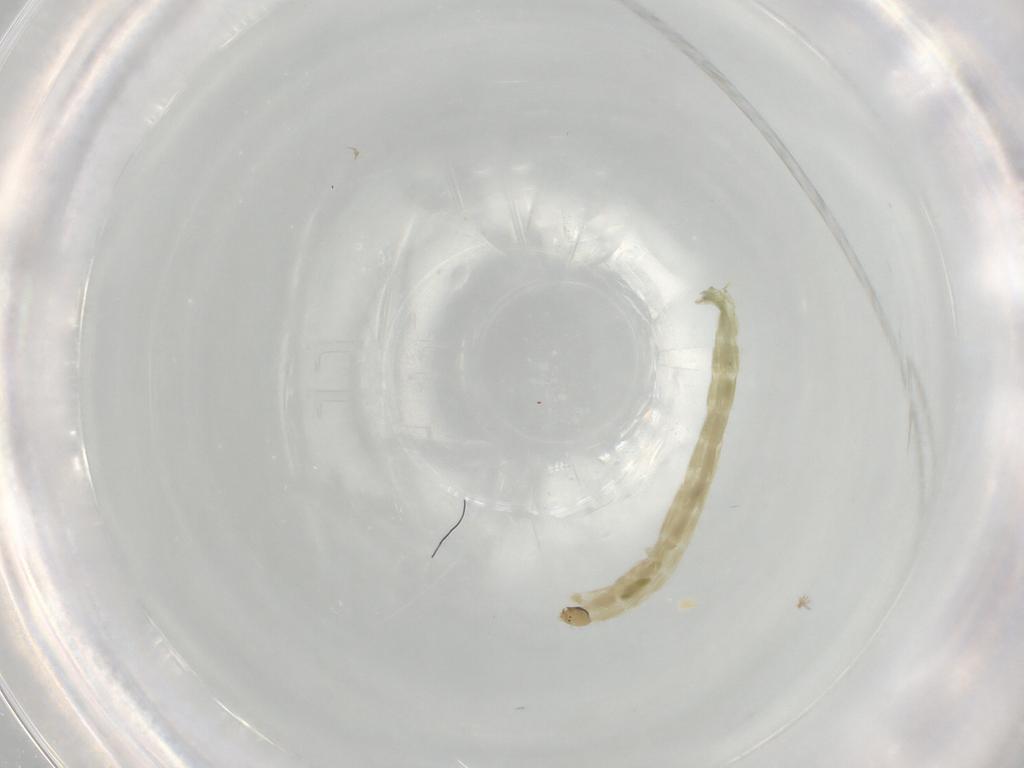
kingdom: Animalia
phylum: Arthropoda
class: Insecta
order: Diptera
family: Chironomidae
